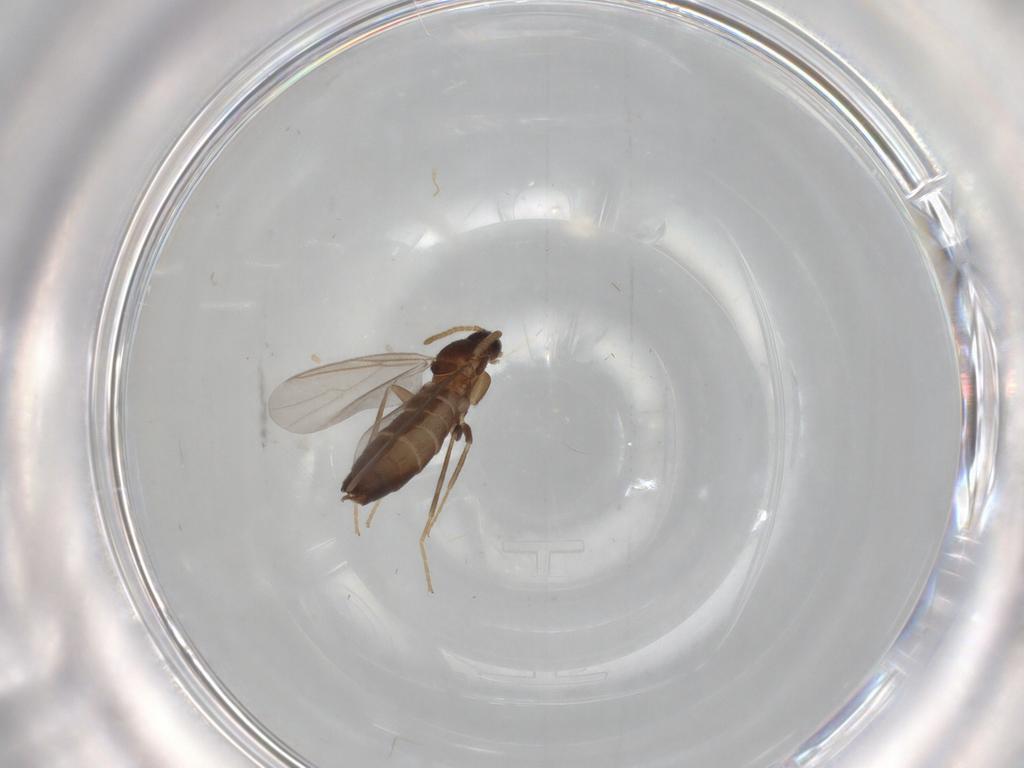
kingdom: Animalia
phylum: Arthropoda
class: Insecta
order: Diptera
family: Scatopsidae
